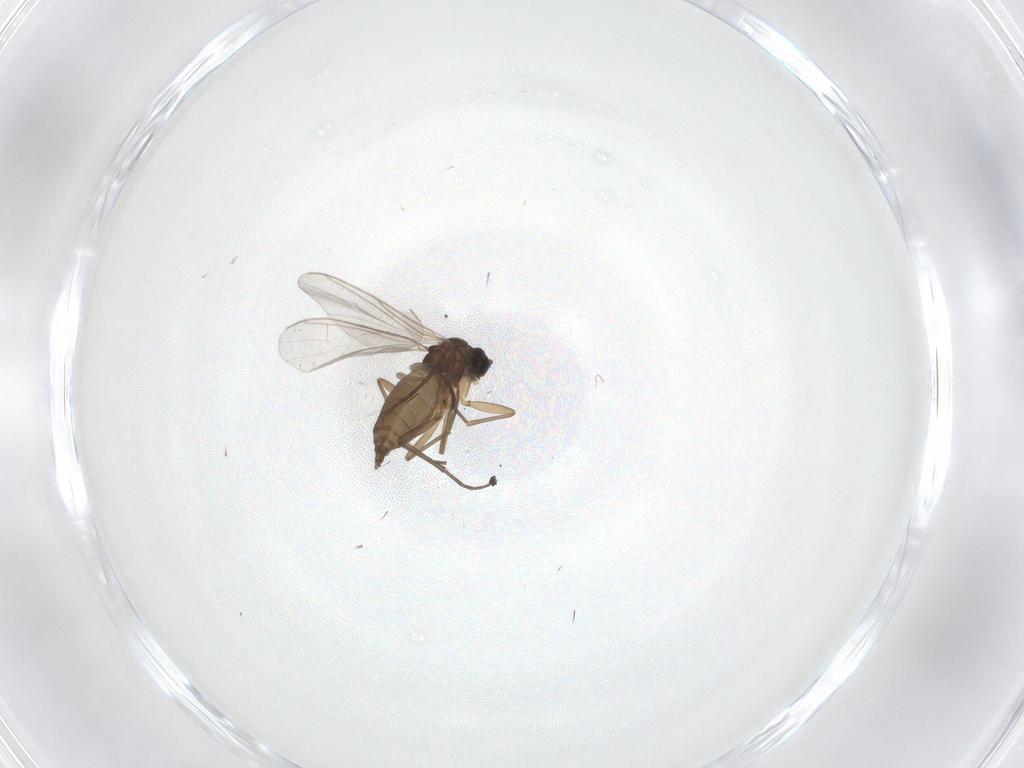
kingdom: Animalia
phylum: Arthropoda
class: Insecta
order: Diptera
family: Sciaridae
